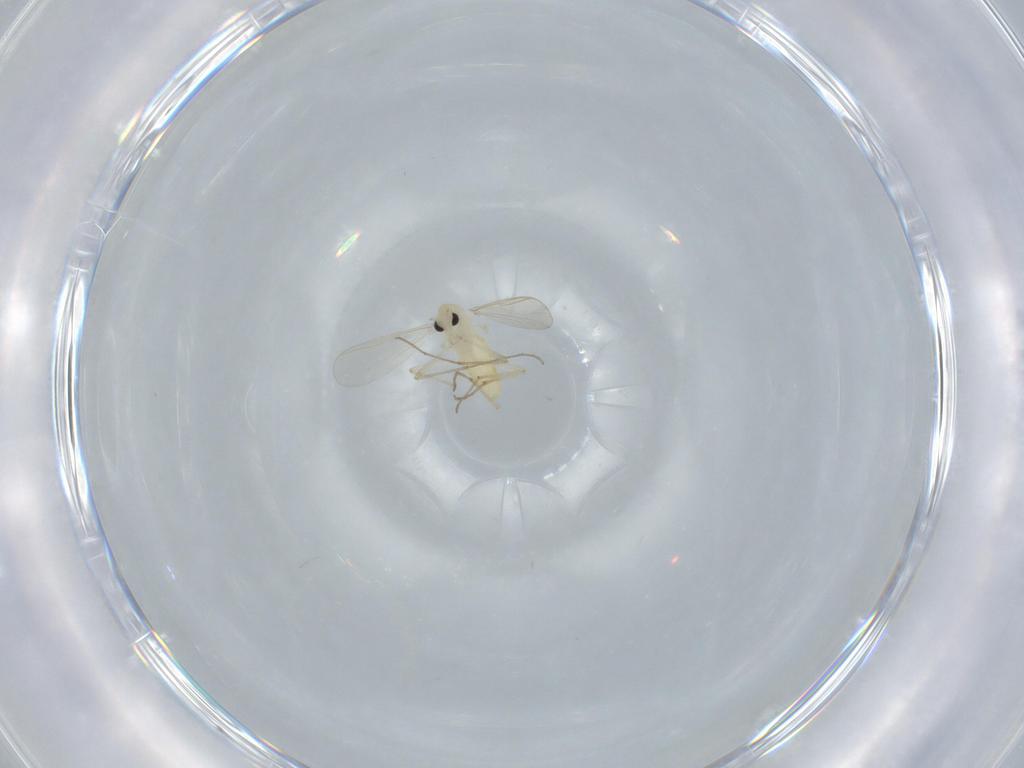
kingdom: Animalia
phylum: Arthropoda
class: Insecta
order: Diptera
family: Chironomidae
